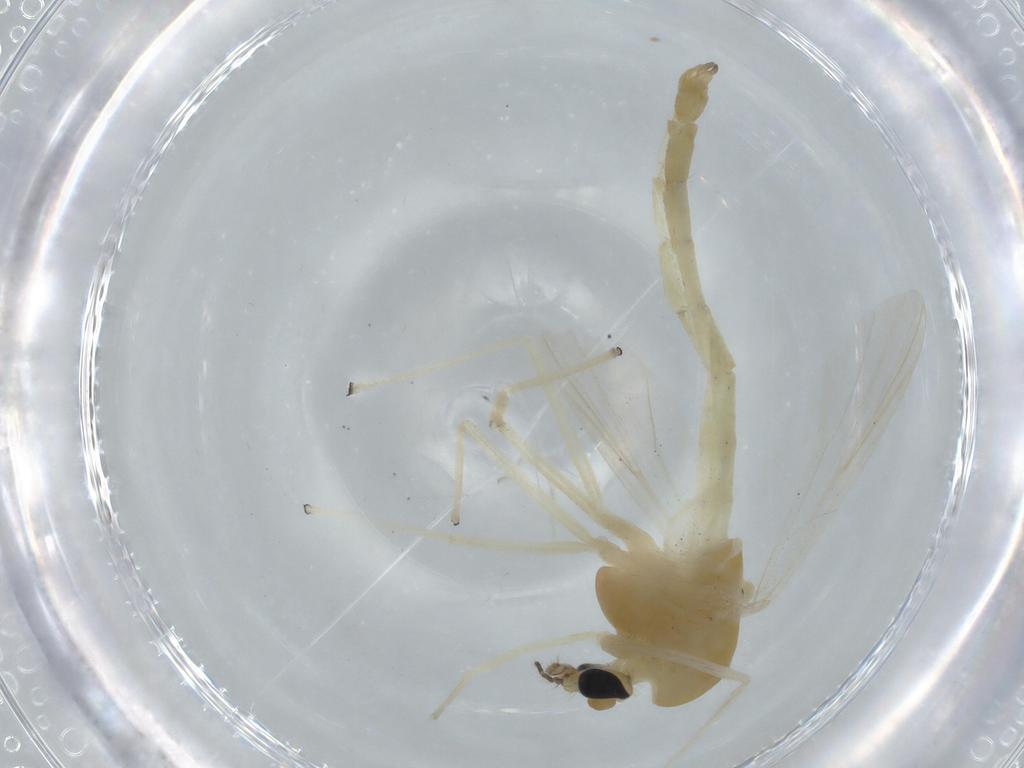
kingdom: Animalia
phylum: Arthropoda
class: Insecta
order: Diptera
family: Chironomidae
